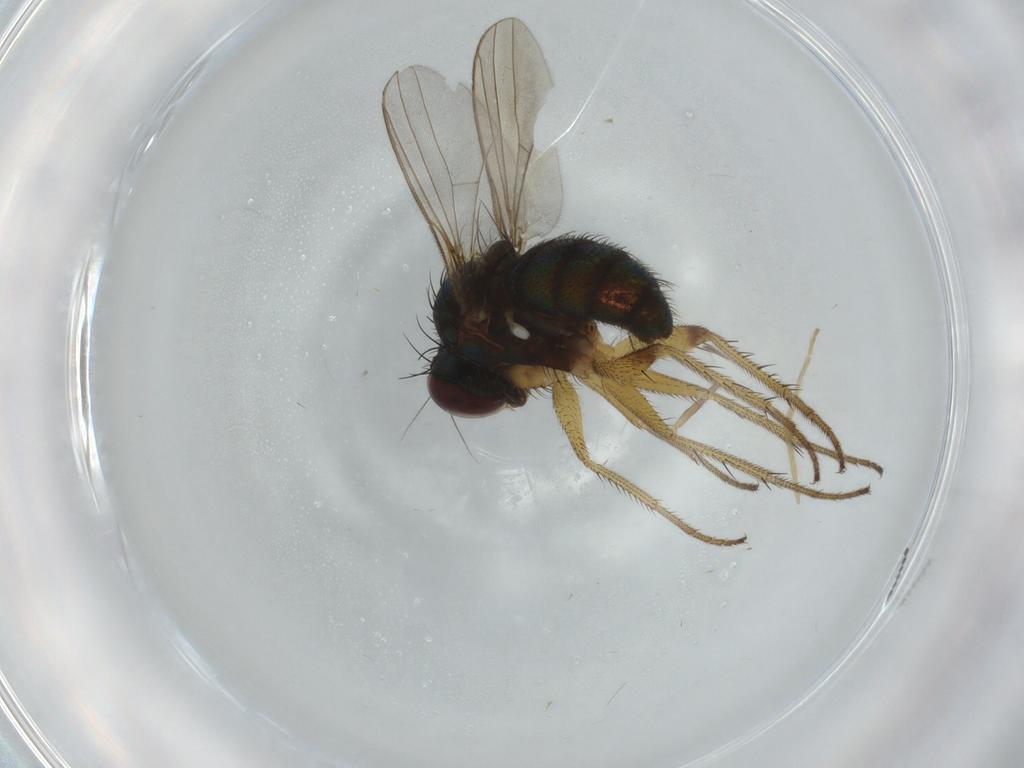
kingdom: Animalia
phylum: Arthropoda
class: Insecta
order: Diptera
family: Dolichopodidae
